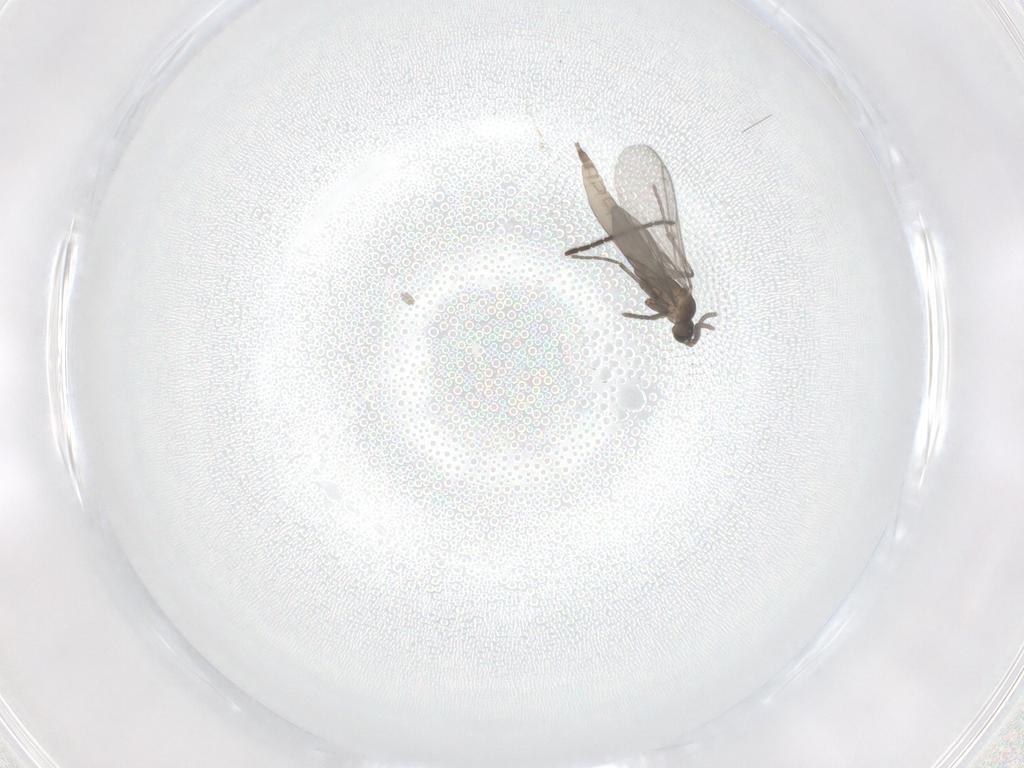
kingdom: Animalia
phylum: Arthropoda
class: Insecta
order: Diptera
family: Sciaridae
